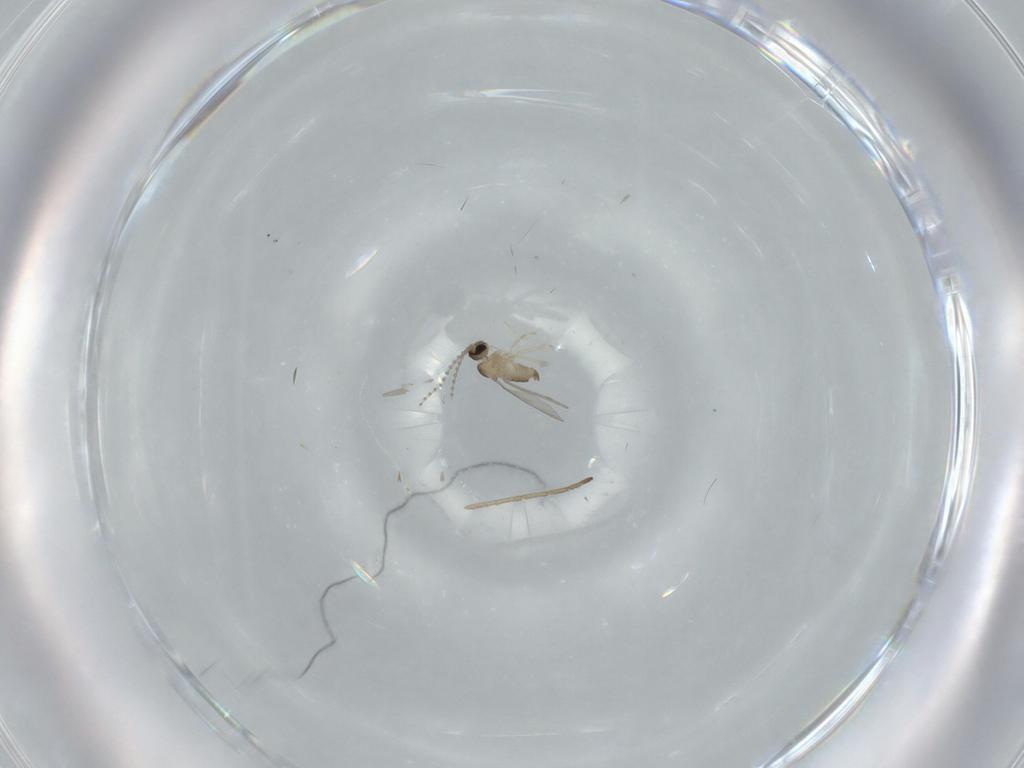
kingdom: Animalia
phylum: Arthropoda
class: Insecta
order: Diptera
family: Cecidomyiidae
